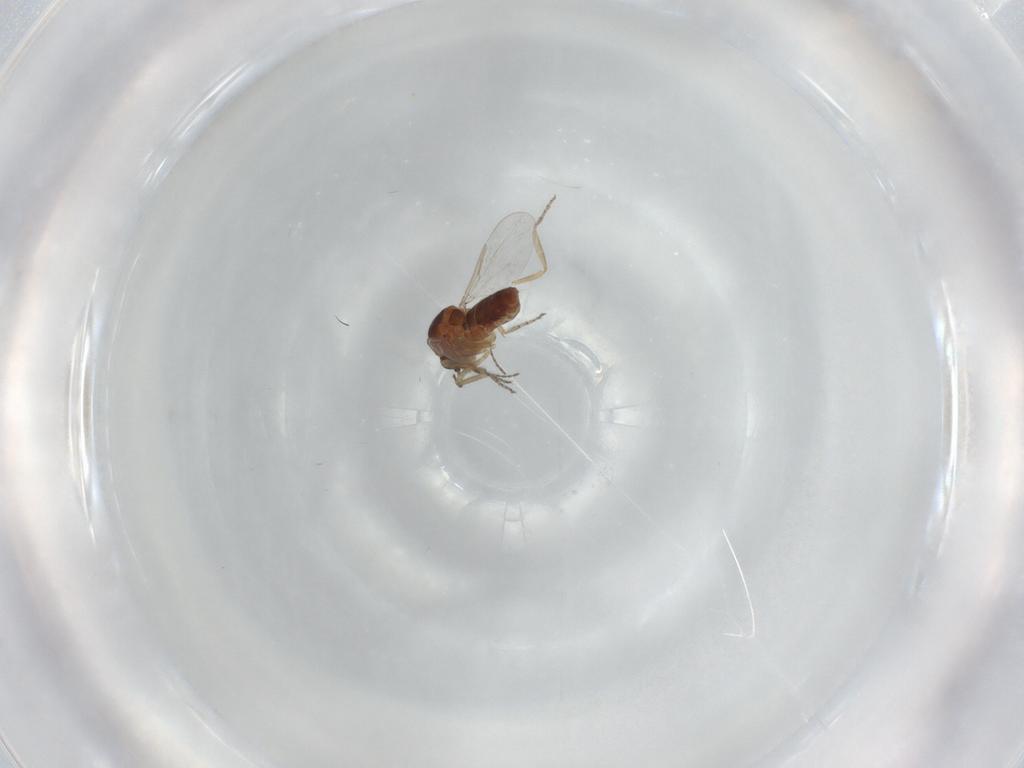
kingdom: Animalia
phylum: Arthropoda
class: Insecta
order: Diptera
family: Ceratopogonidae
